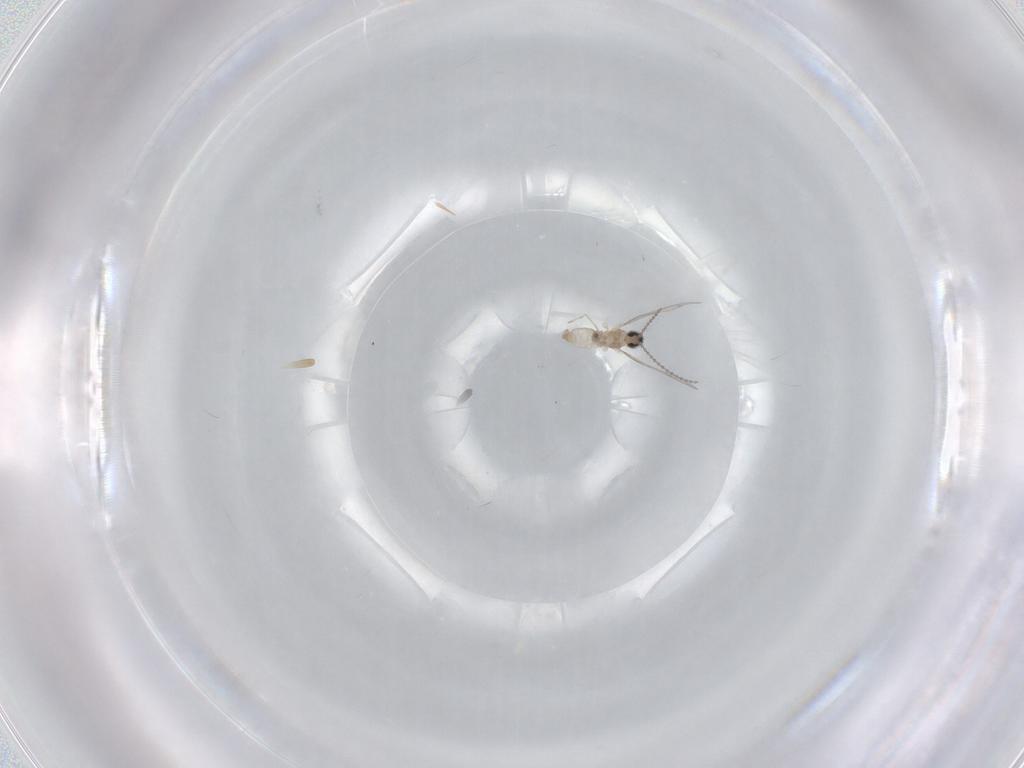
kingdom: Animalia
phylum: Arthropoda
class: Insecta
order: Diptera
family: Cecidomyiidae
